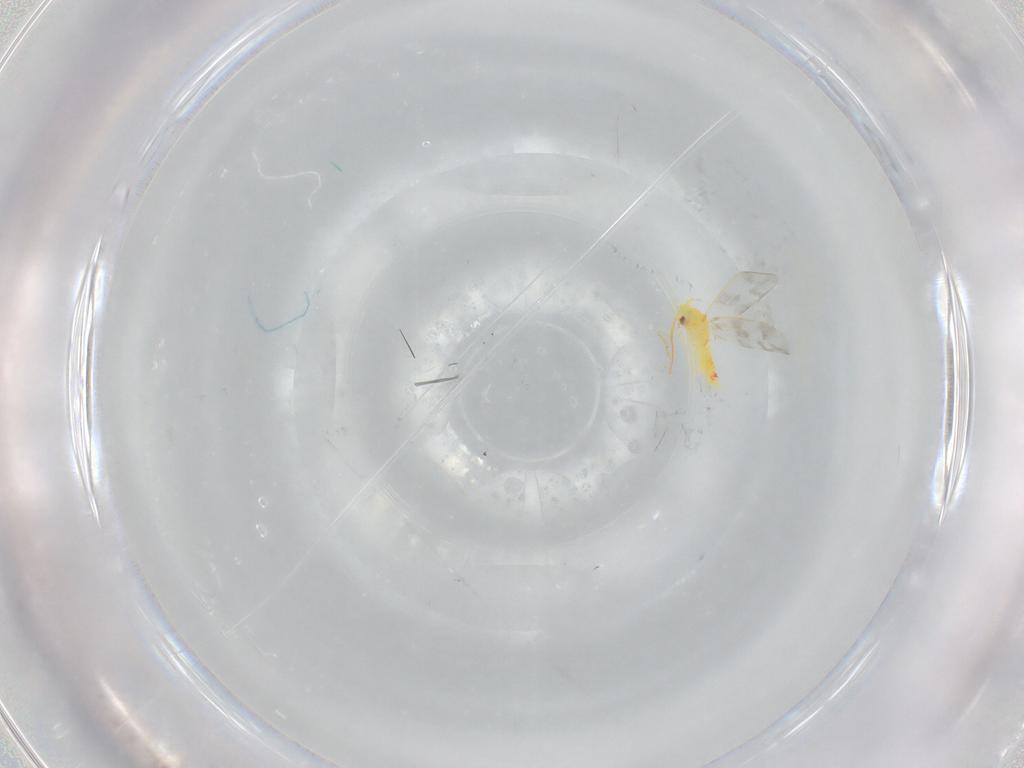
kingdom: Animalia
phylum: Arthropoda
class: Insecta
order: Hemiptera
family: Aleyrodidae
